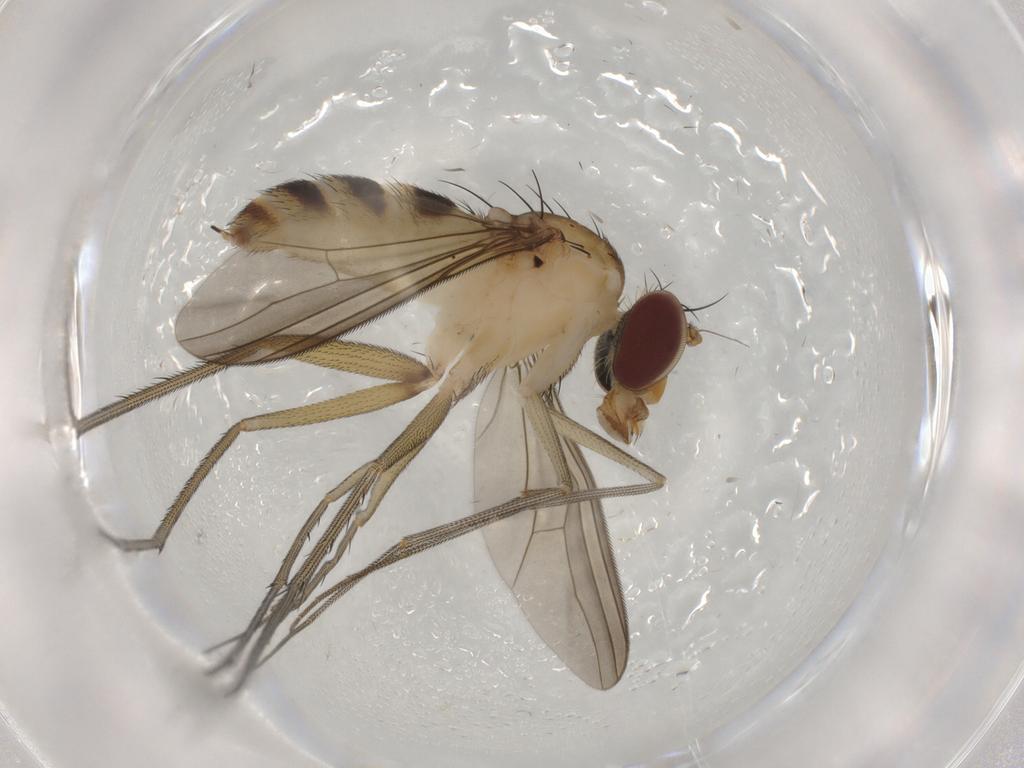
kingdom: Animalia
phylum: Arthropoda
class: Insecta
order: Diptera
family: Dolichopodidae
